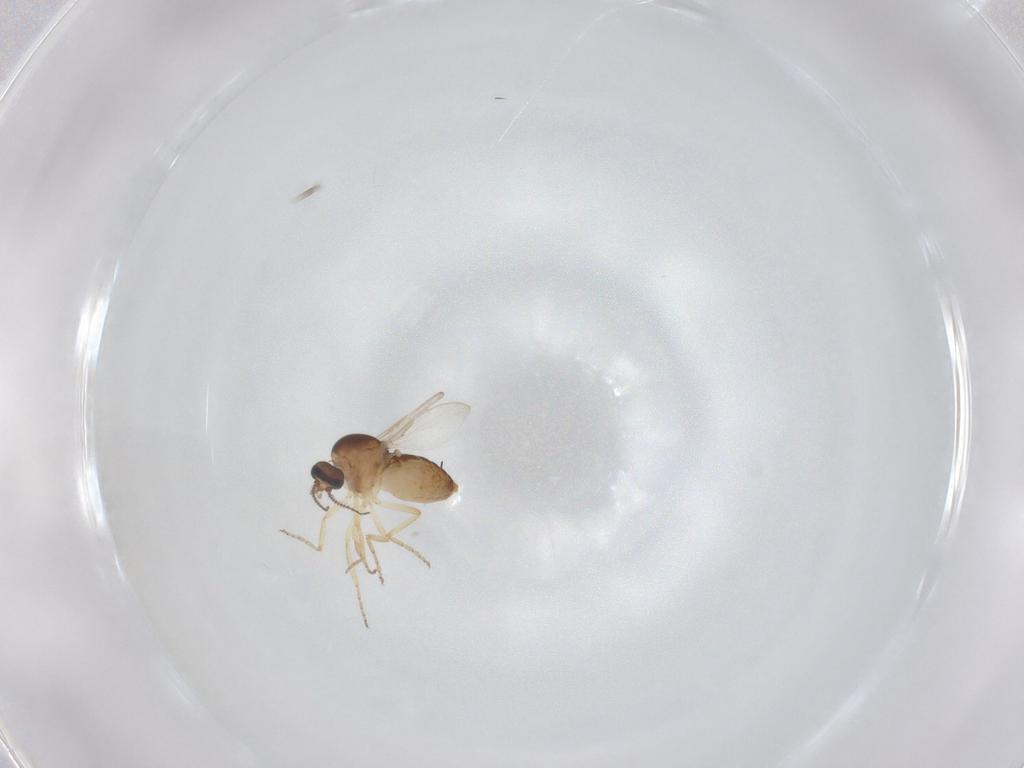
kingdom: Animalia
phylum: Arthropoda
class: Insecta
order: Diptera
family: Ceratopogonidae
